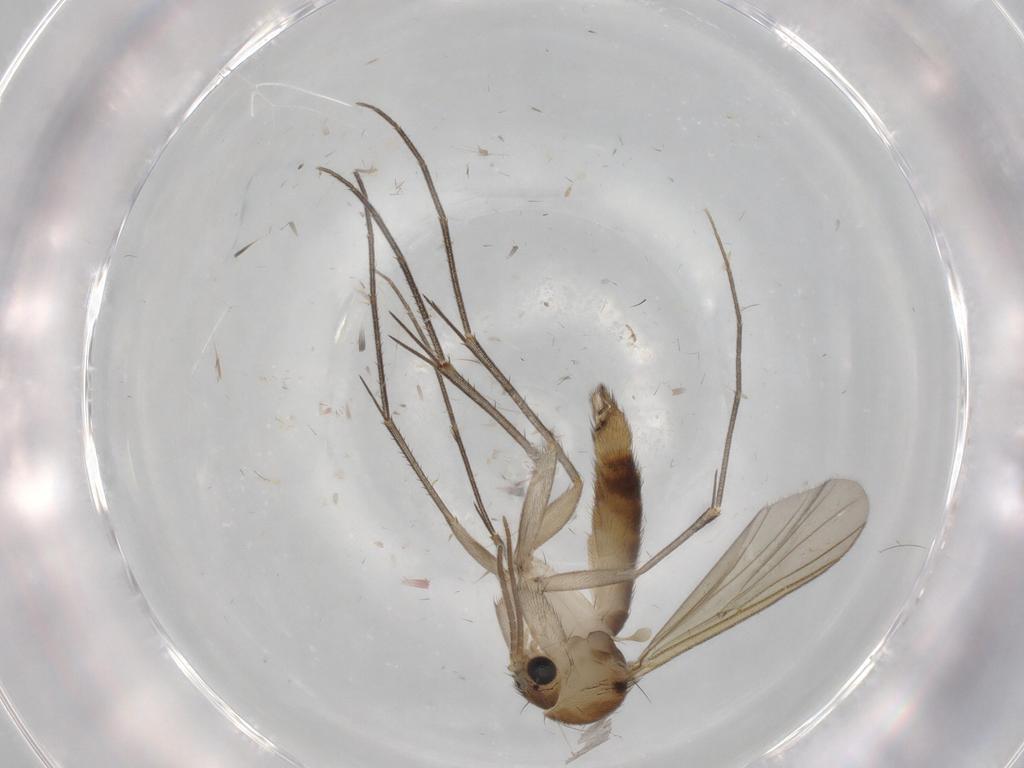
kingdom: Animalia
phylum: Arthropoda
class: Insecta
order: Diptera
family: Mycetophilidae
